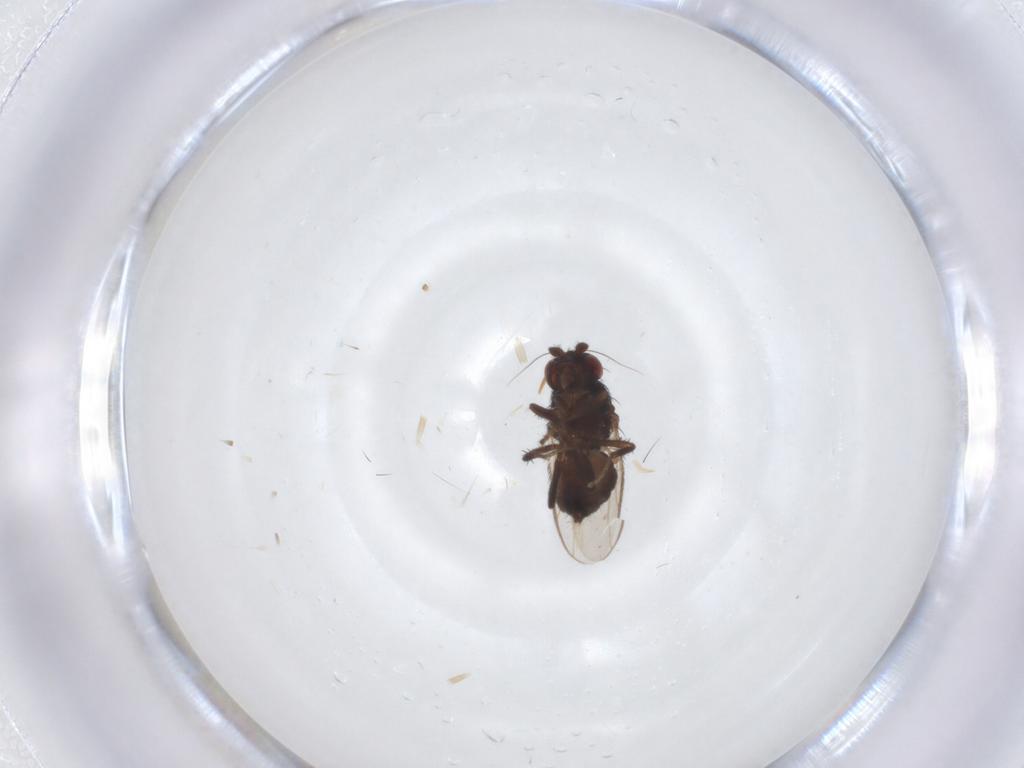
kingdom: Animalia
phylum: Arthropoda
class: Insecta
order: Diptera
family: Sphaeroceridae
